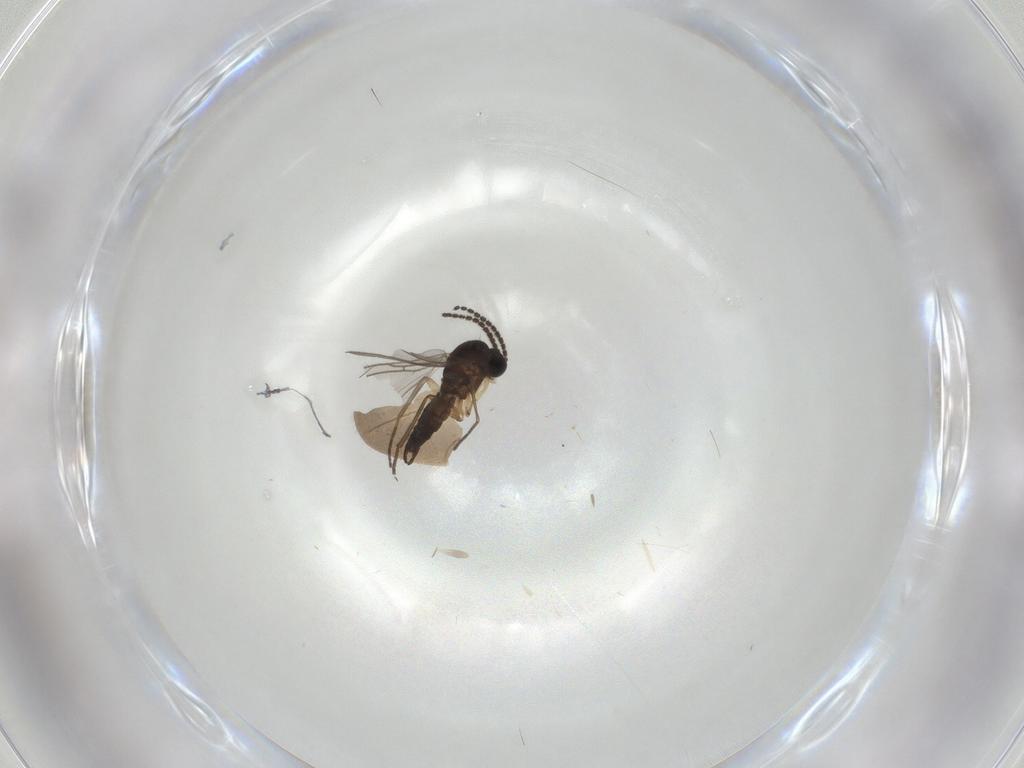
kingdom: Animalia
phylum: Arthropoda
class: Insecta
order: Diptera
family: Sciaridae
